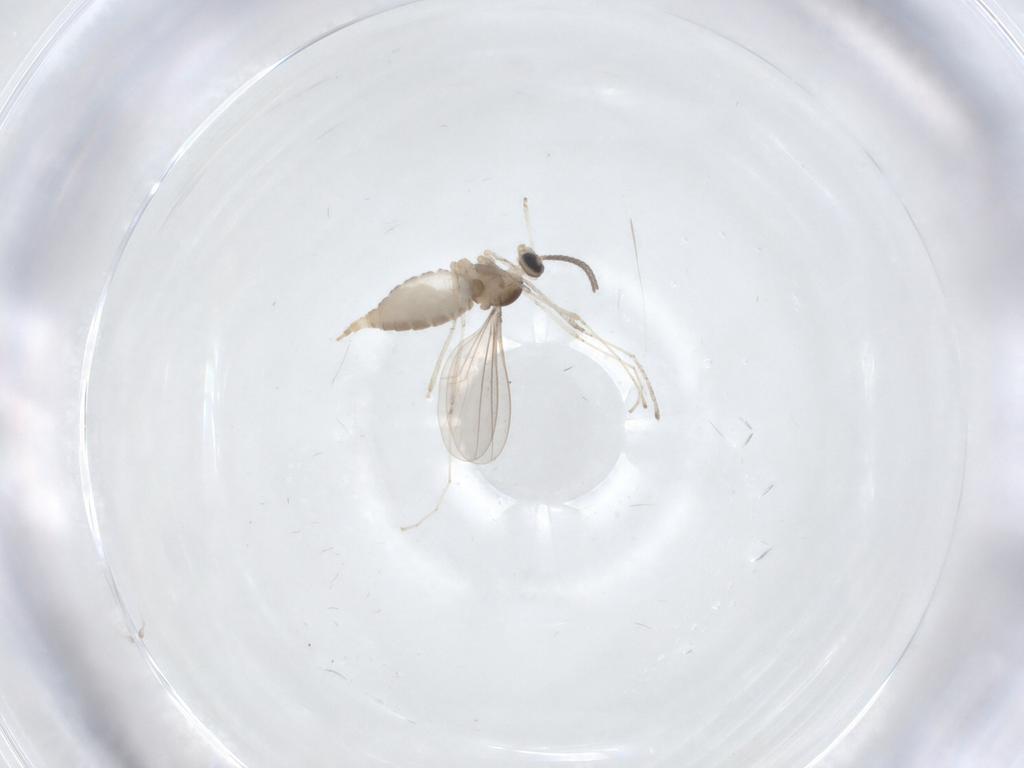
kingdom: Animalia
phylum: Arthropoda
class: Insecta
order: Diptera
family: Cecidomyiidae
